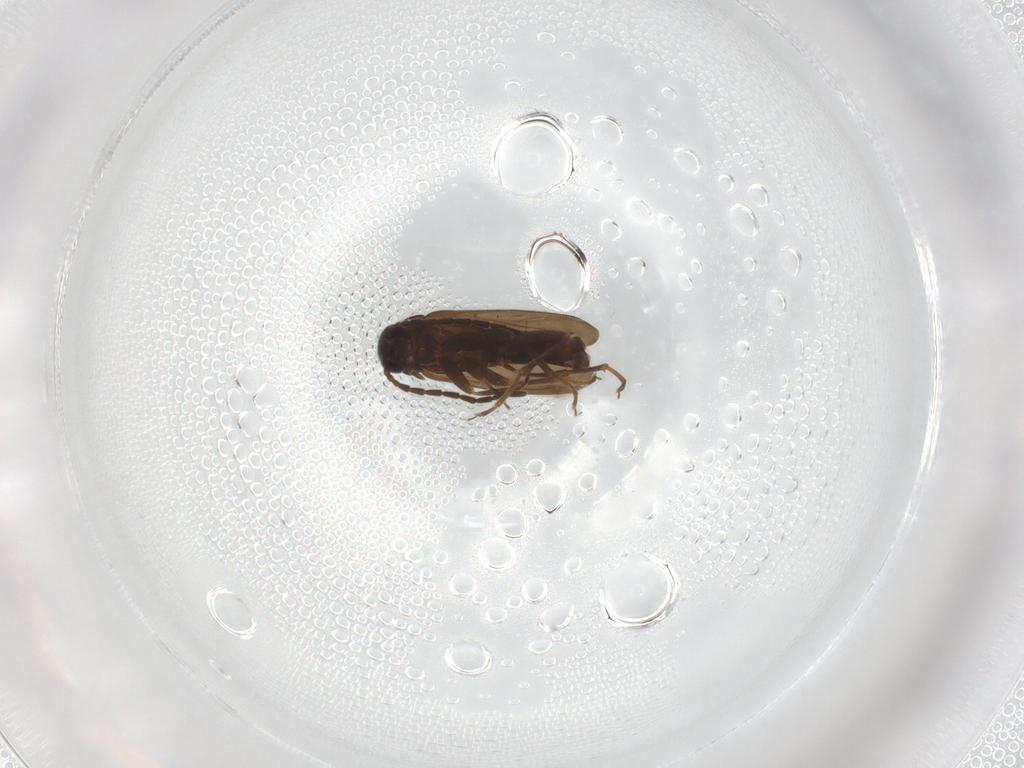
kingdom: Animalia
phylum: Arthropoda
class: Insecta
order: Coleoptera
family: Scraptiidae
